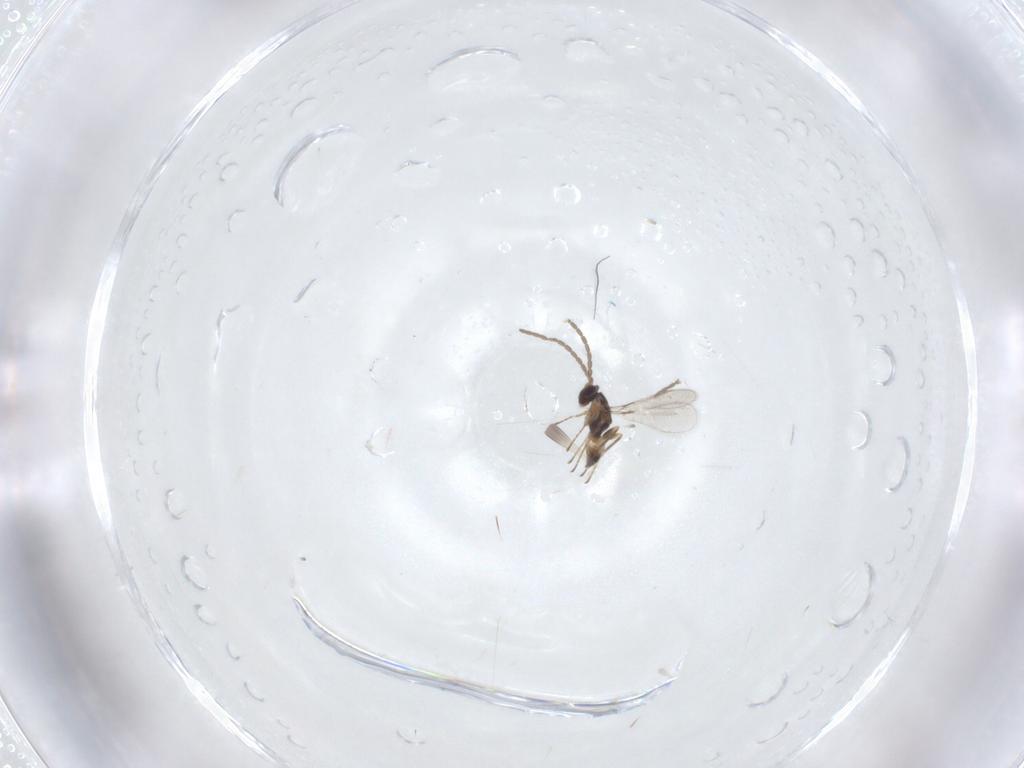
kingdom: Animalia
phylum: Arthropoda
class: Insecta
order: Hymenoptera
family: Mymaridae
